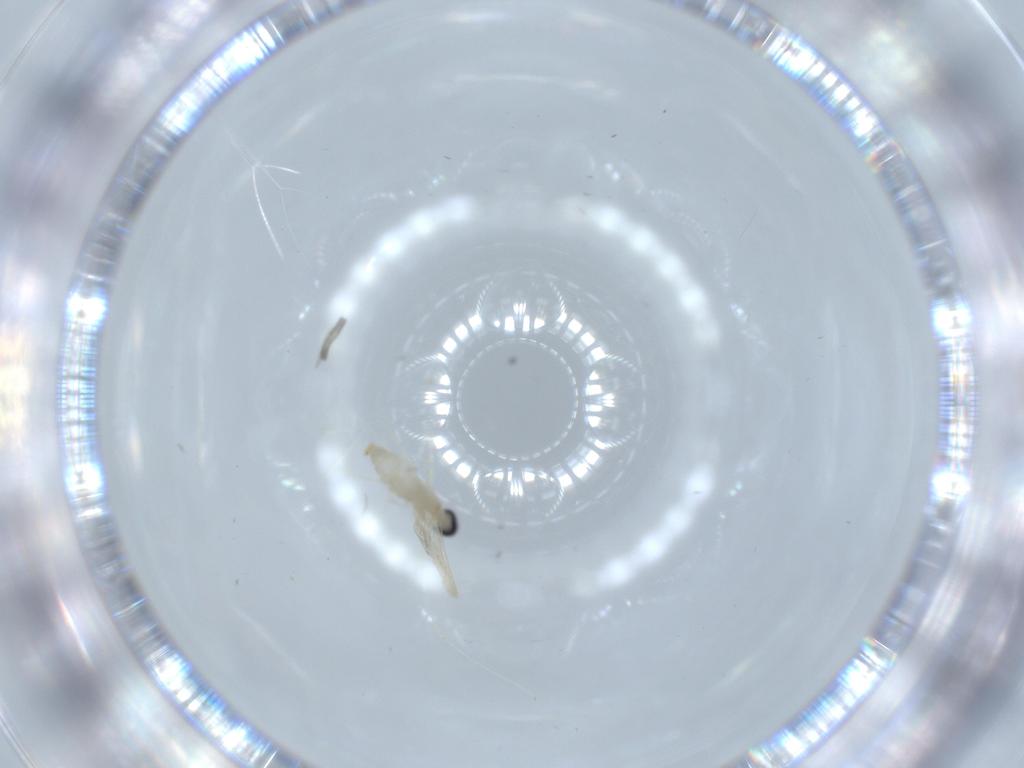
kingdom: Animalia
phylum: Arthropoda
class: Insecta
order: Diptera
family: Cecidomyiidae
